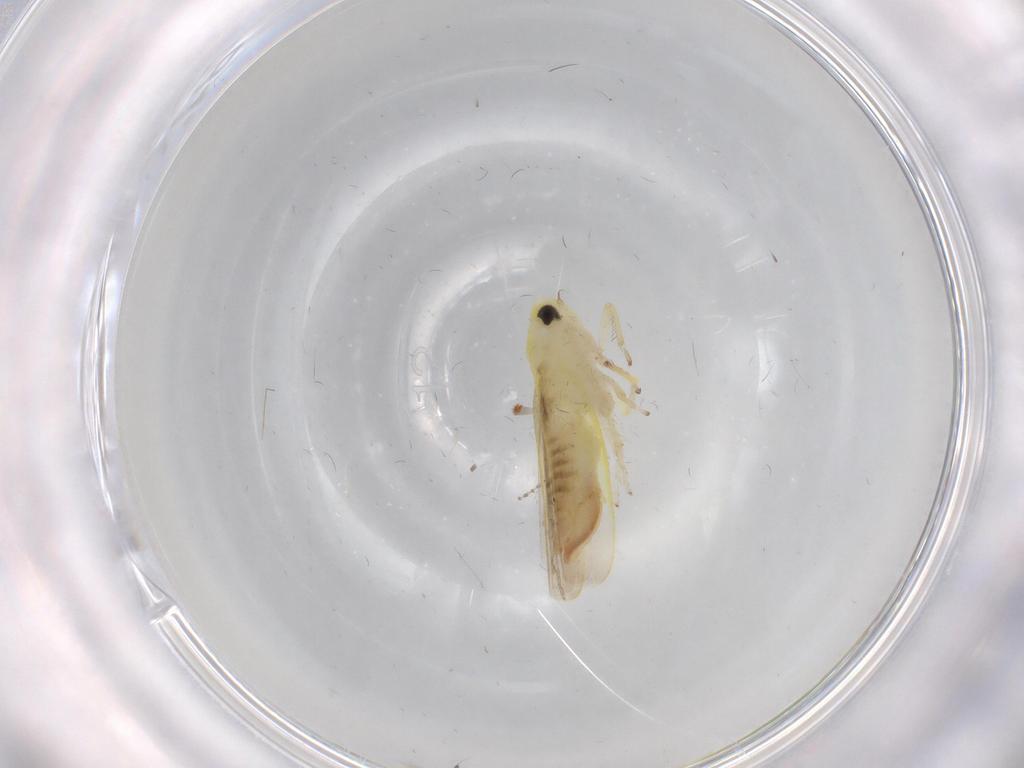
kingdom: Animalia
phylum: Arthropoda
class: Insecta
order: Hemiptera
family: Cicadellidae
